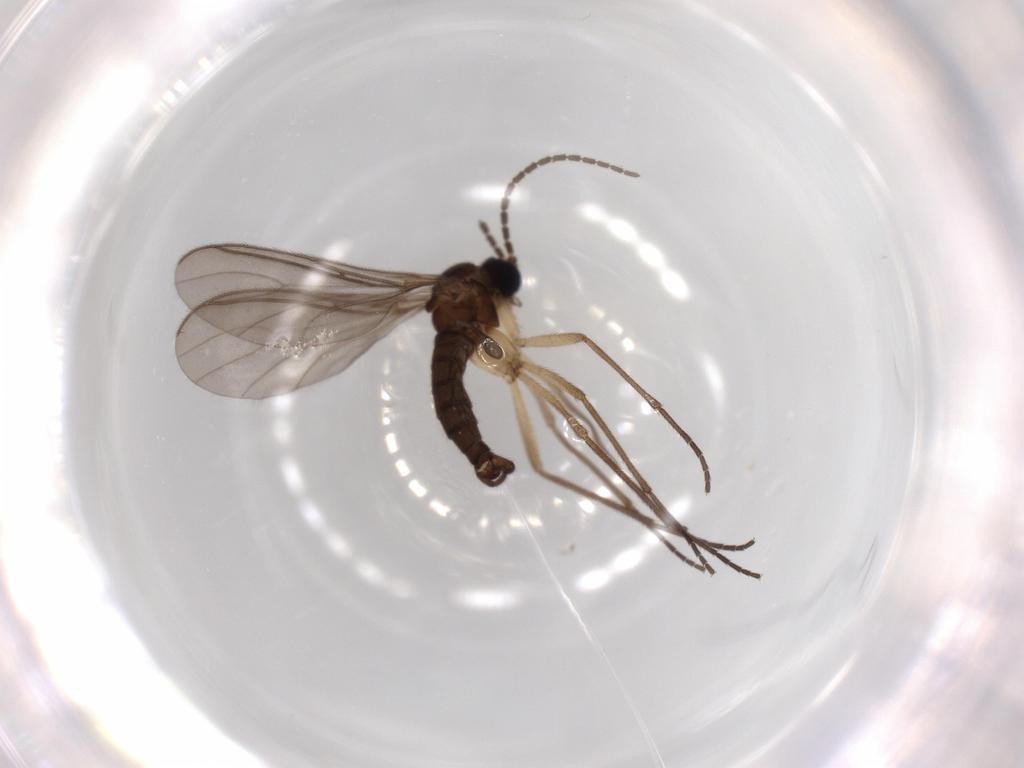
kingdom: Animalia
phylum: Arthropoda
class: Insecta
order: Diptera
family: Sciaridae
